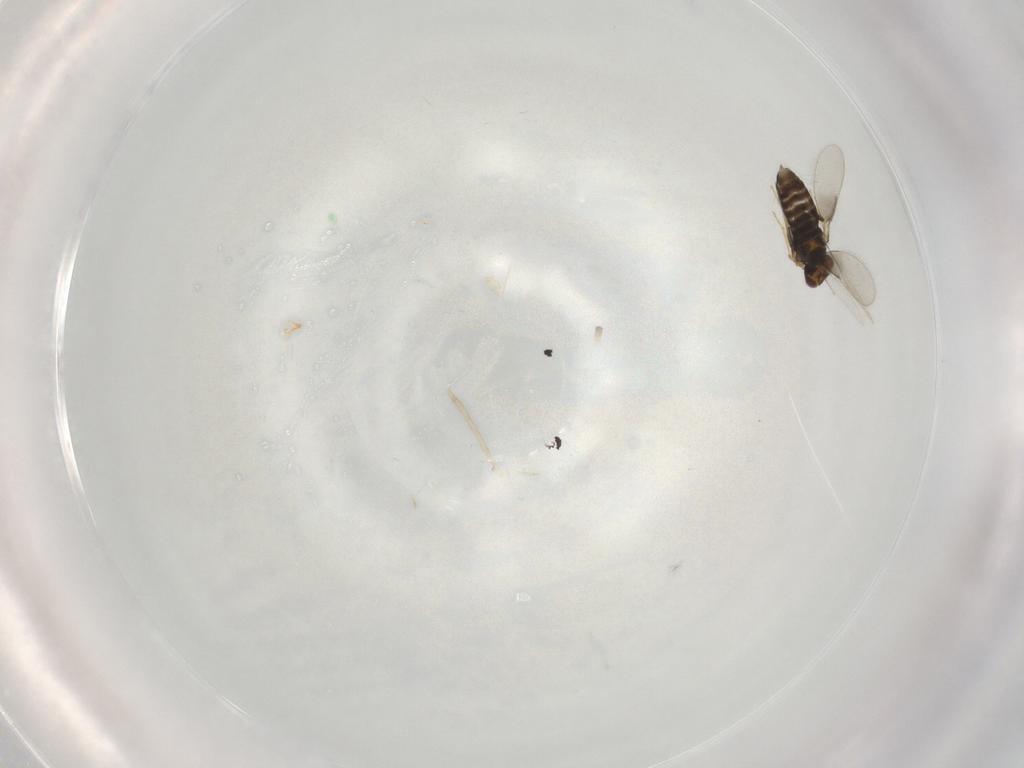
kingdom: Animalia
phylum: Arthropoda
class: Insecta
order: Hymenoptera
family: Aphelinidae
